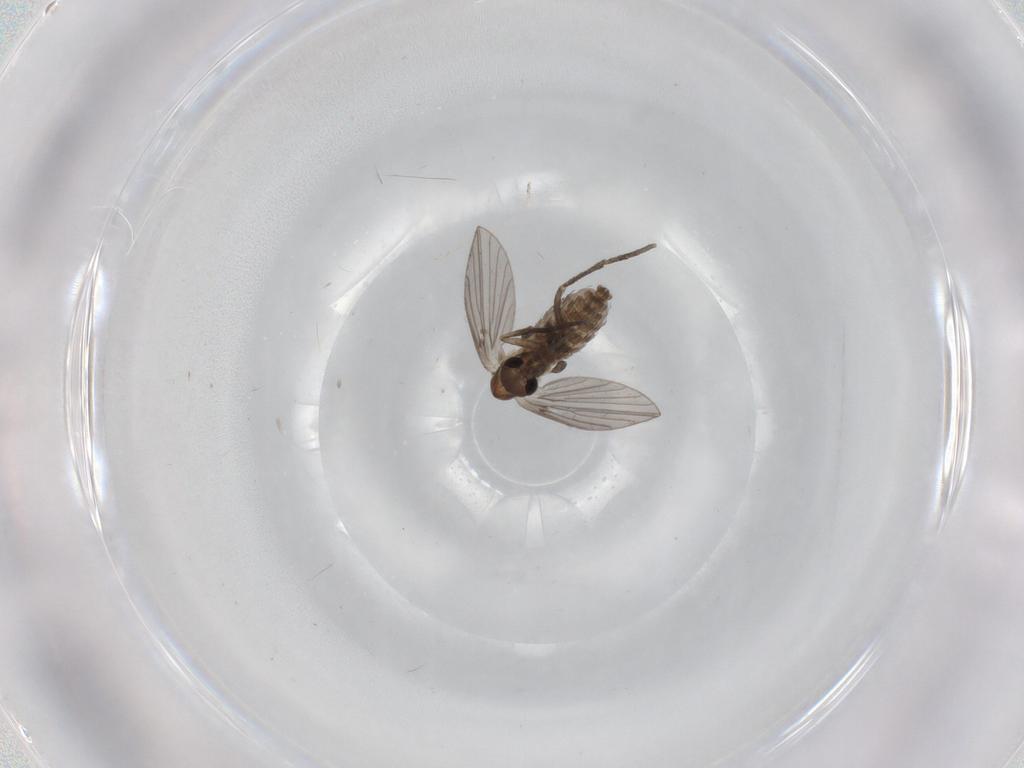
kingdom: Animalia
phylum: Arthropoda
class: Insecta
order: Diptera
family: Psychodidae
